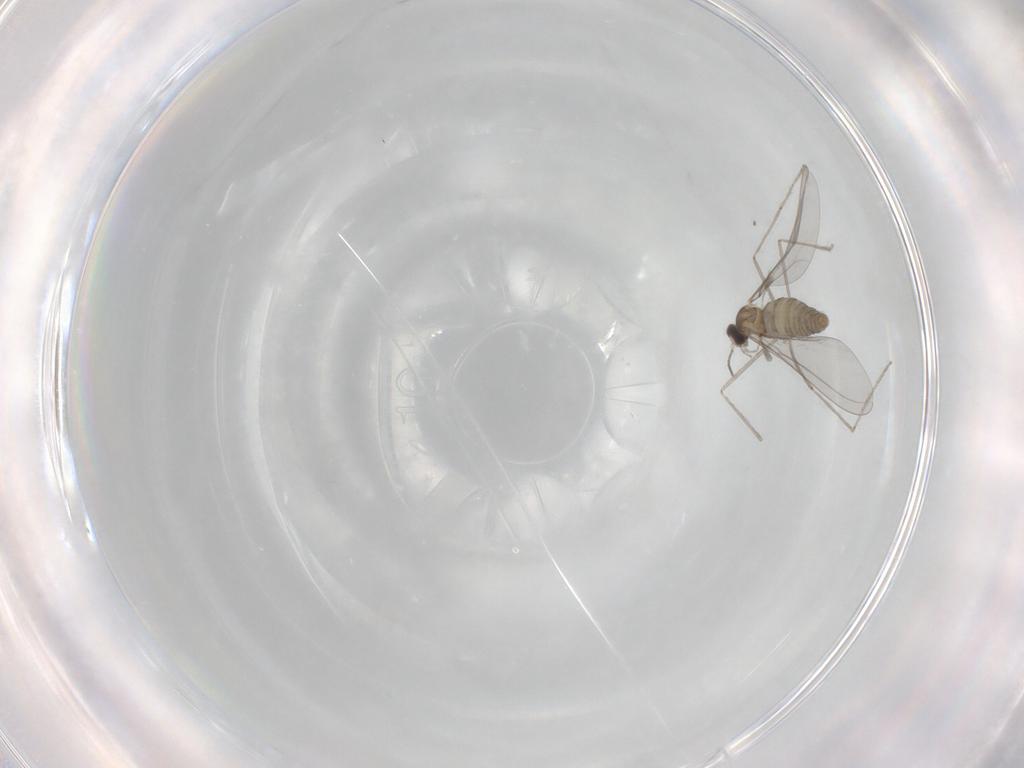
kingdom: Animalia
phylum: Arthropoda
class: Insecta
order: Diptera
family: Cecidomyiidae
